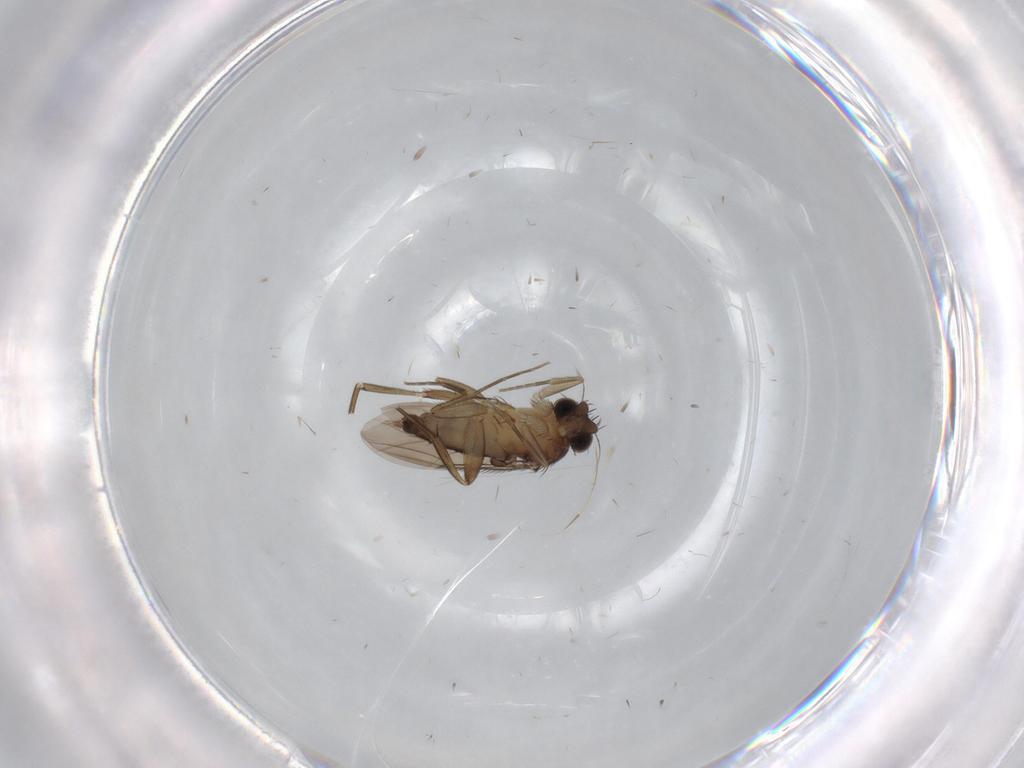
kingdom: Animalia
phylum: Arthropoda
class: Insecta
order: Diptera
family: Phoridae
